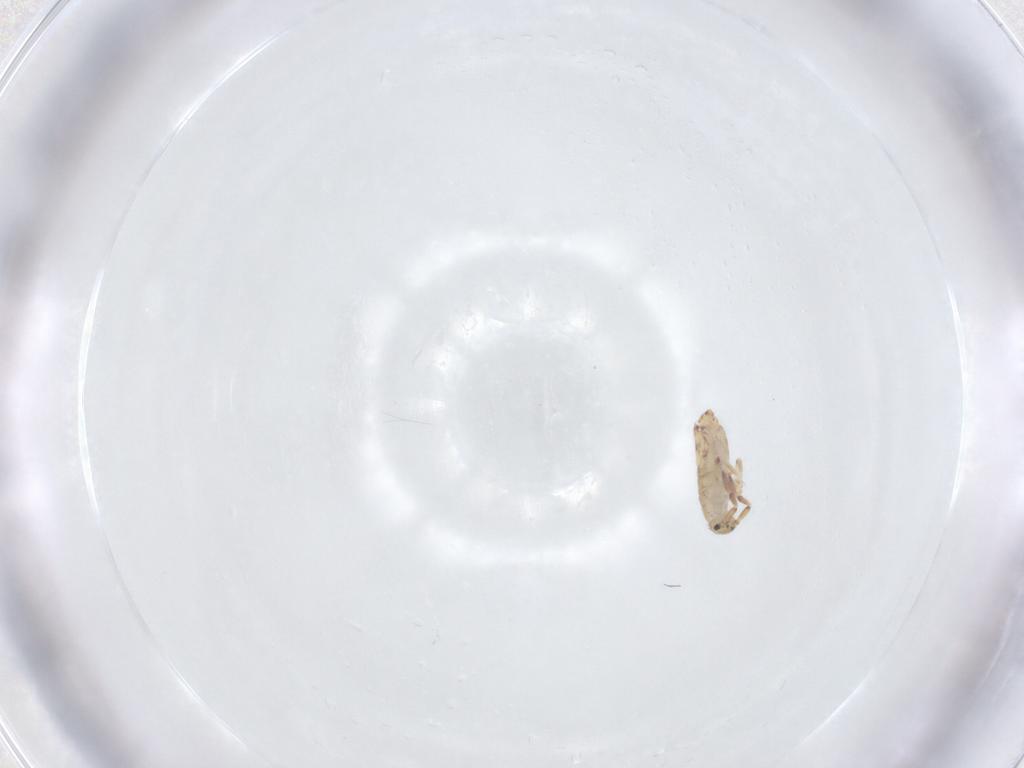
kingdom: Animalia
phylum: Arthropoda
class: Collembola
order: Entomobryomorpha
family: Entomobryidae
